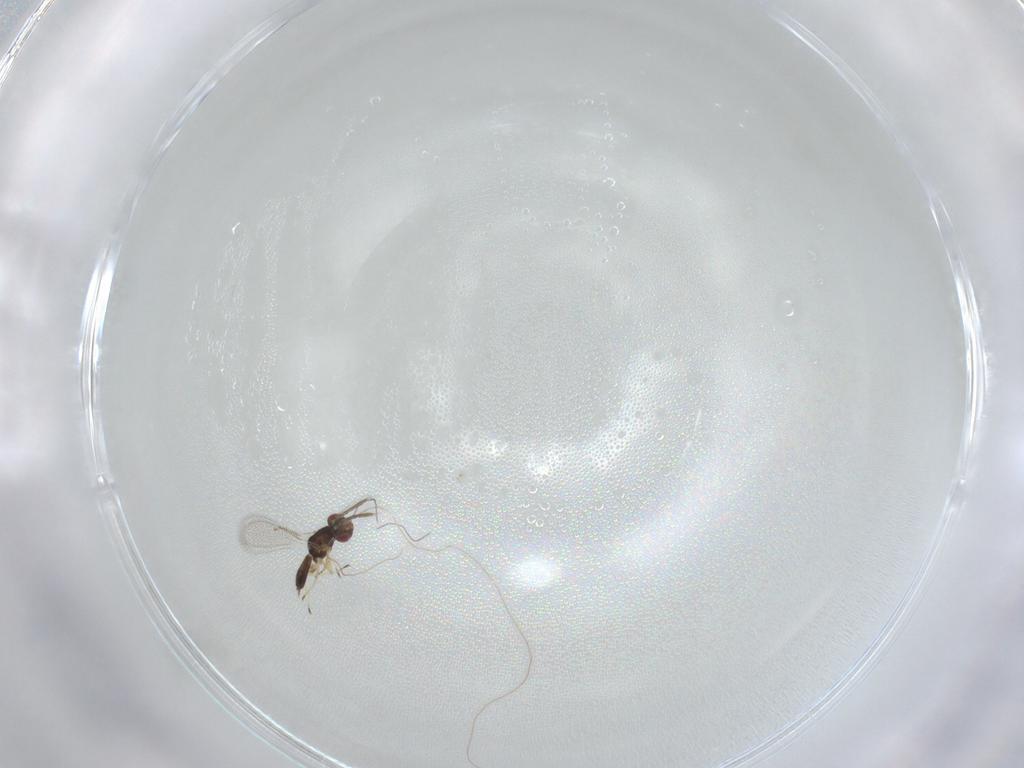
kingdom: Animalia
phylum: Arthropoda
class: Insecta
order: Hymenoptera
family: Eulophidae
